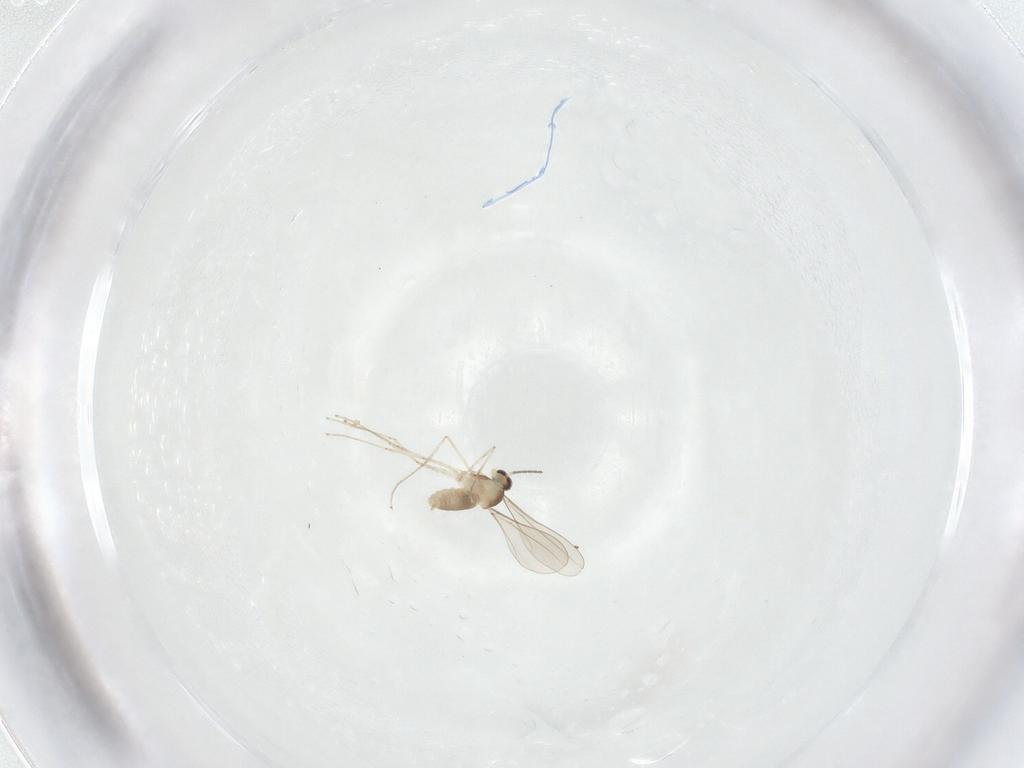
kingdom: Animalia
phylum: Arthropoda
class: Insecta
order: Diptera
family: Cecidomyiidae
